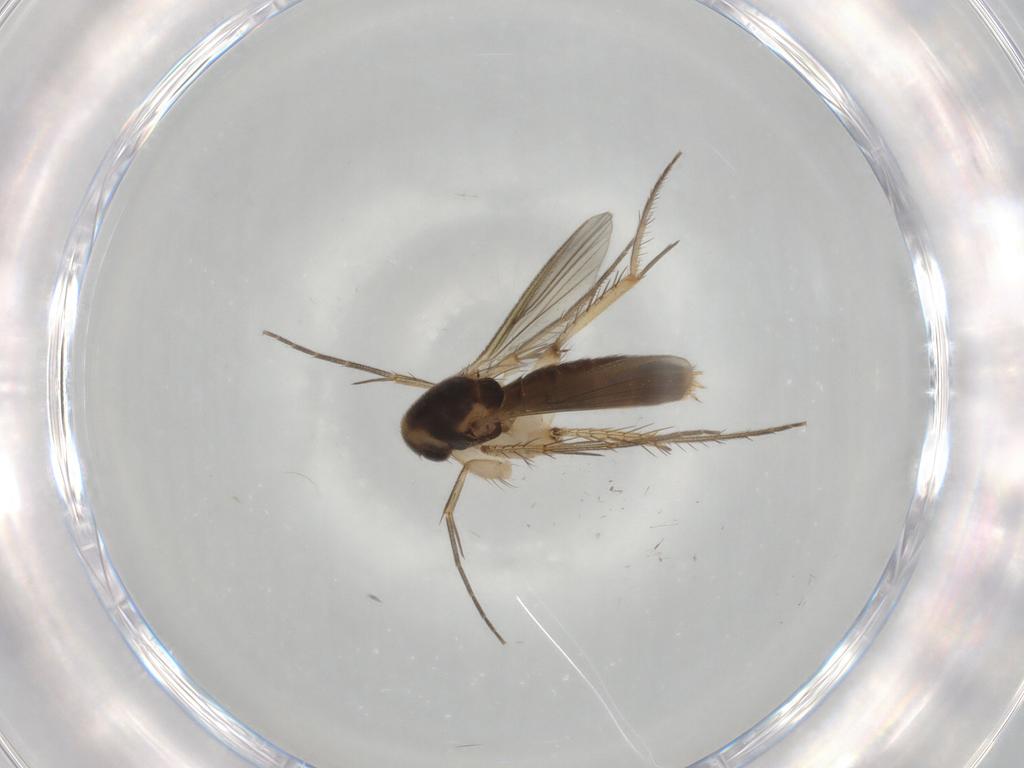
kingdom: Animalia
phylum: Arthropoda
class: Insecta
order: Diptera
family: Mycetophilidae
